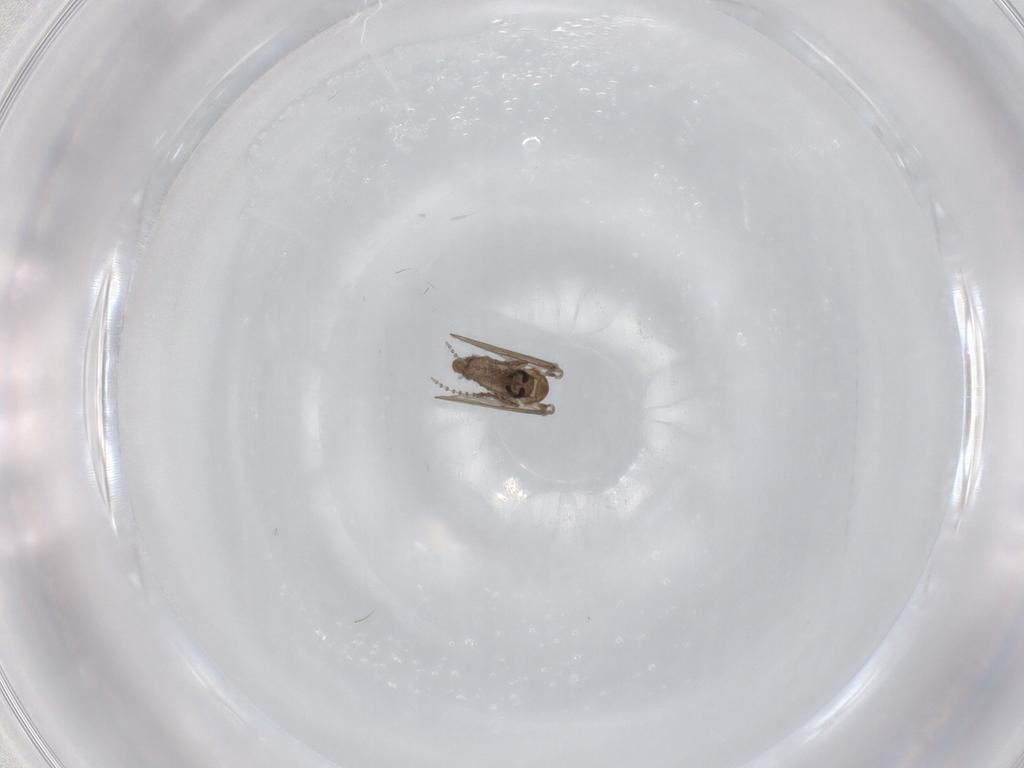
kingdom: Animalia
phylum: Arthropoda
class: Insecta
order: Diptera
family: Psychodidae
